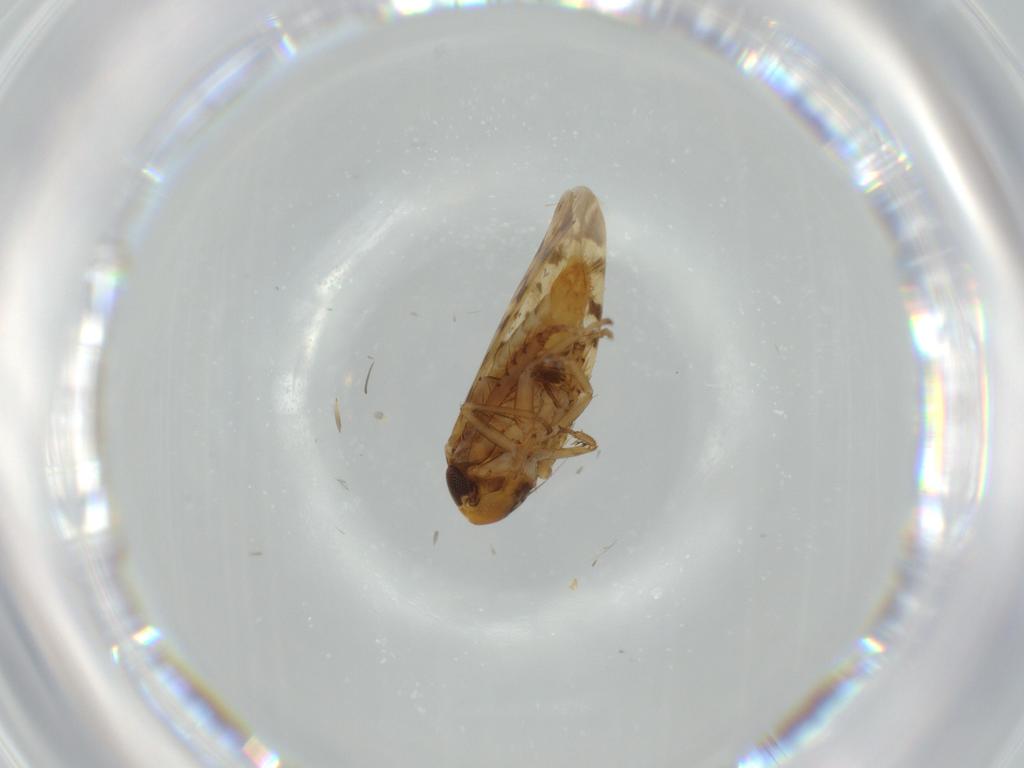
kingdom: Animalia
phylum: Arthropoda
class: Insecta
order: Hemiptera
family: Cicadellidae
